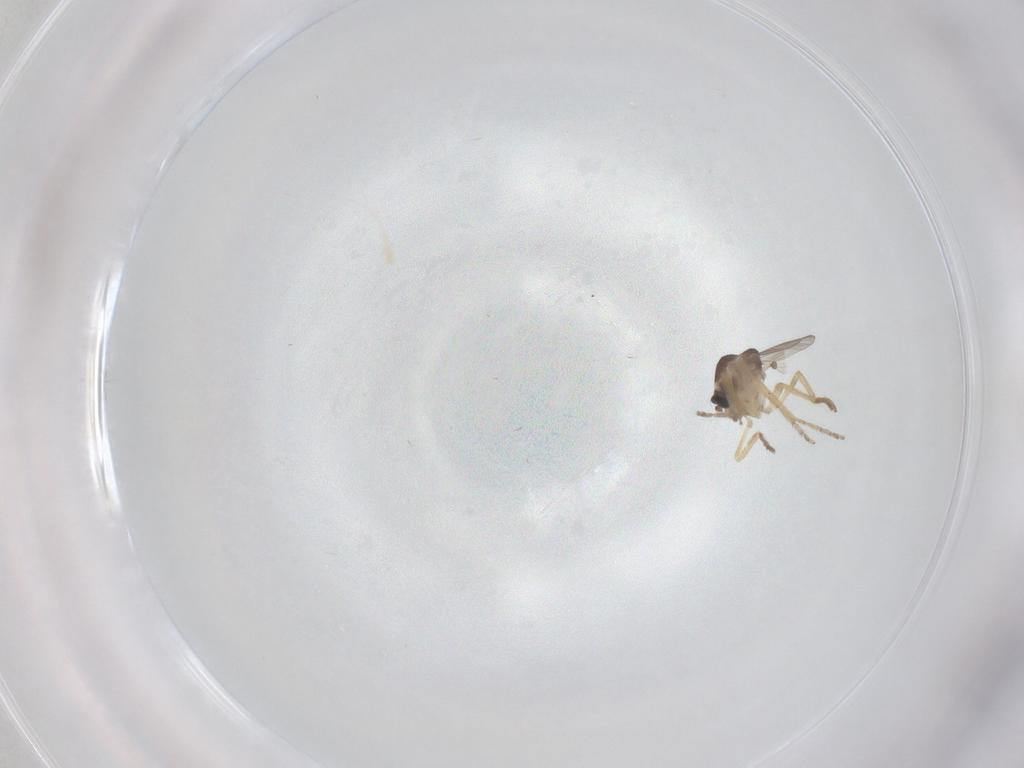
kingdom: Animalia
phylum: Arthropoda
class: Insecta
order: Diptera
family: Ceratopogonidae
